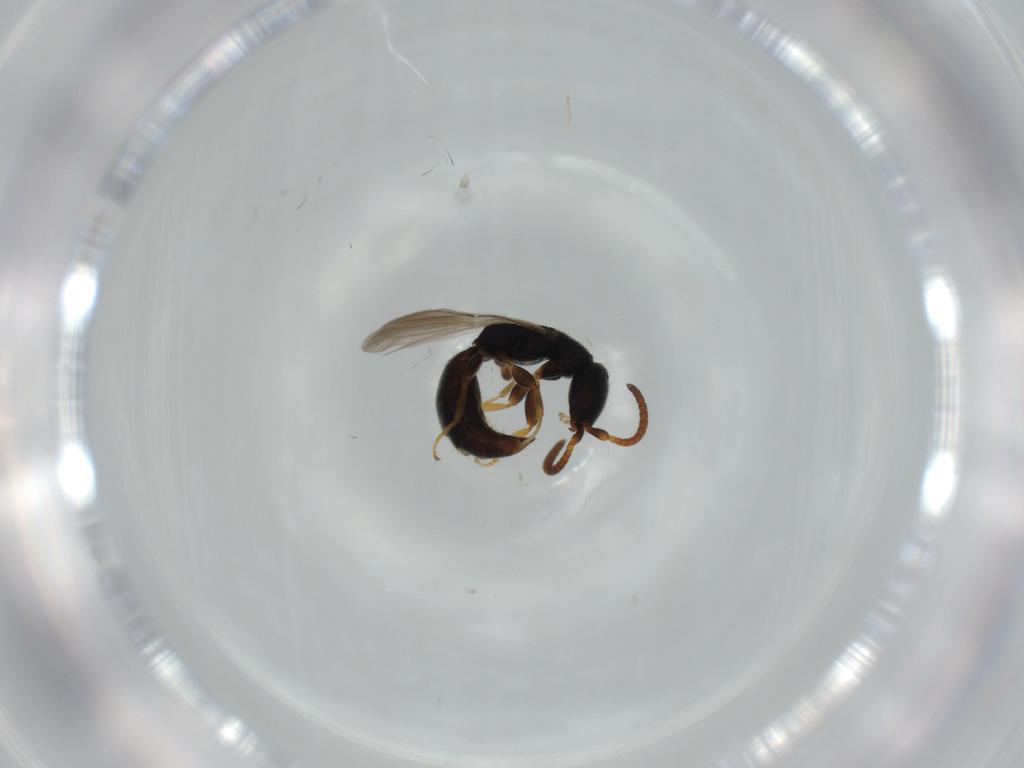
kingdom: Animalia
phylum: Arthropoda
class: Insecta
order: Hymenoptera
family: Bethylidae
